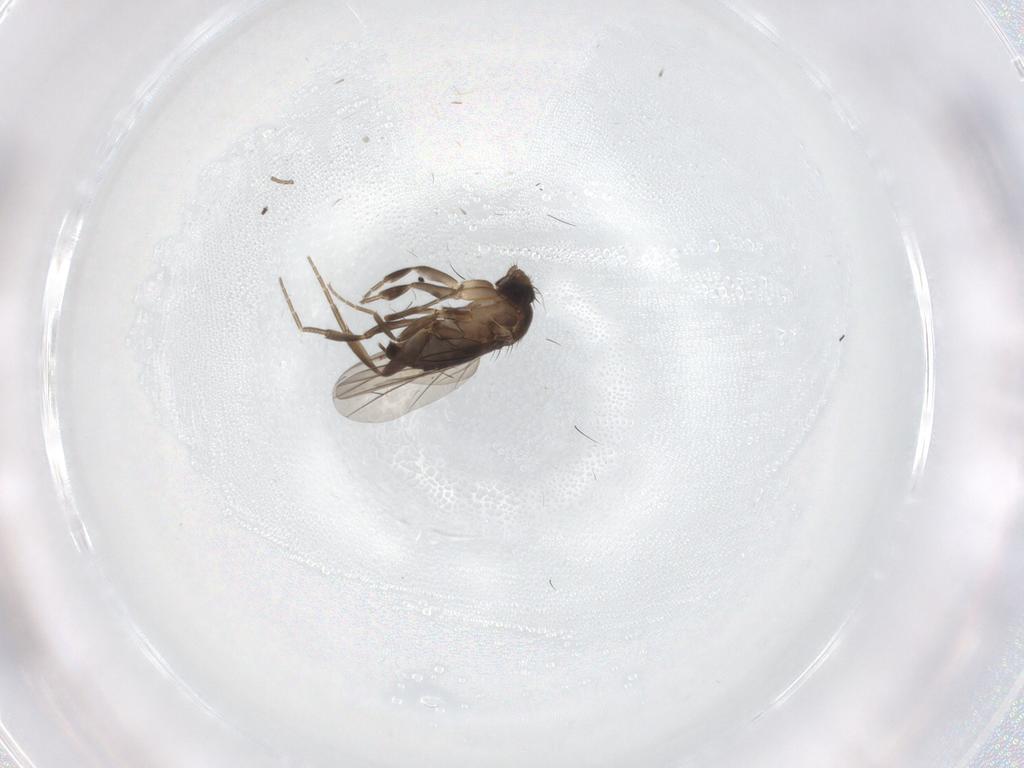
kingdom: Animalia
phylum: Arthropoda
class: Insecta
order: Diptera
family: Phoridae
